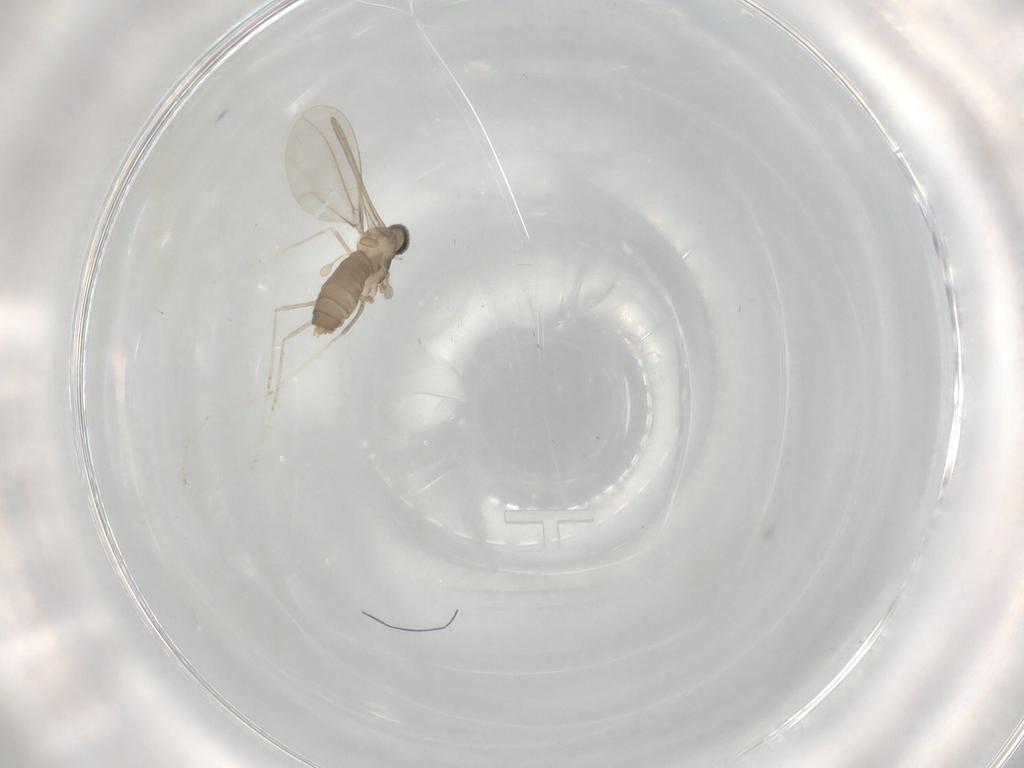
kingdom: Animalia
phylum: Arthropoda
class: Insecta
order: Diptera
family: Cecidomyiidae
